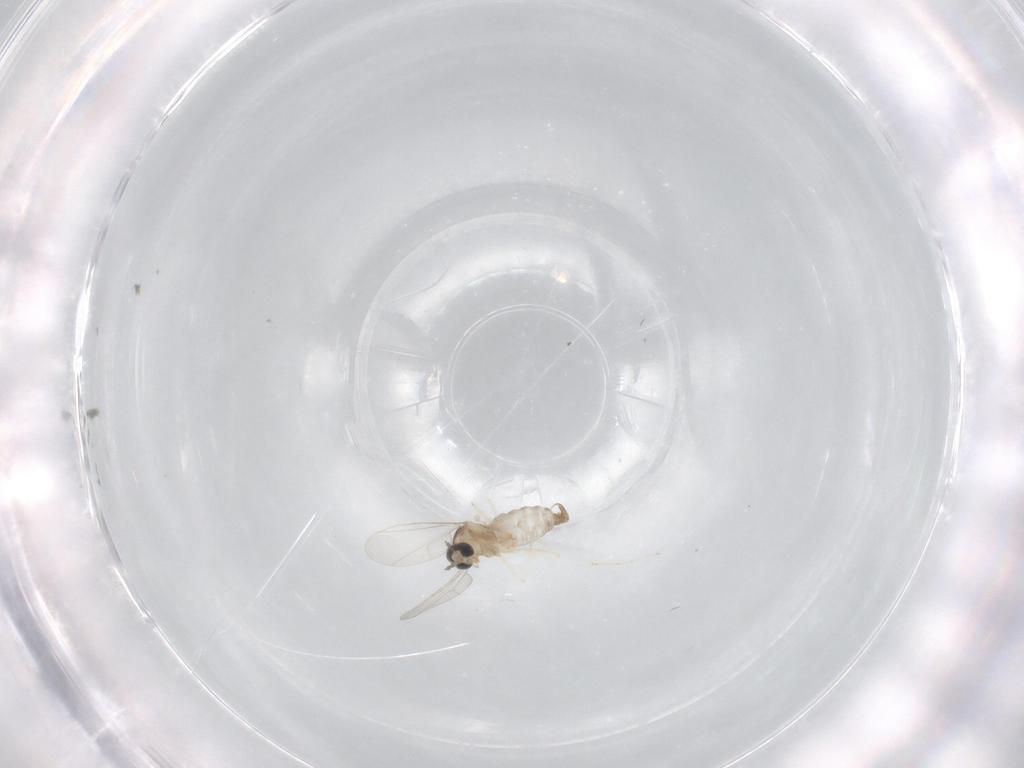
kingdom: Animalia
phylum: Arthropoda
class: Insecta
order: Diptera
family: Cecidomyiidae
